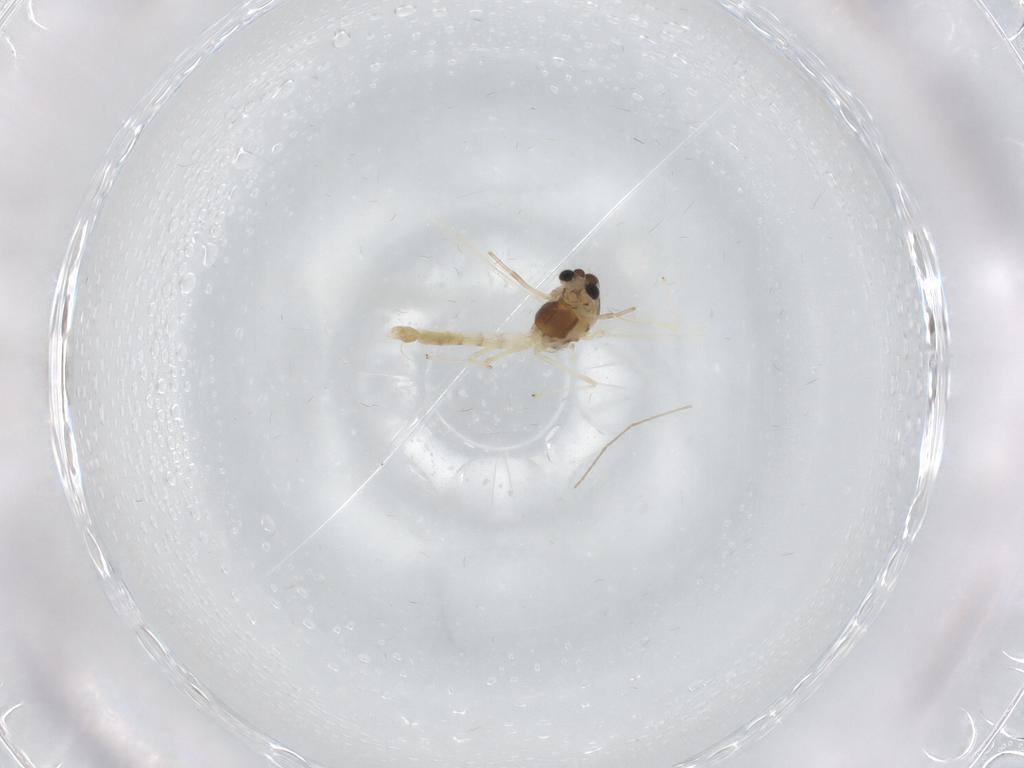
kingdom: Animalia
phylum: Arthropoda
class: Insecta
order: Diptera
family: Chironomidae
